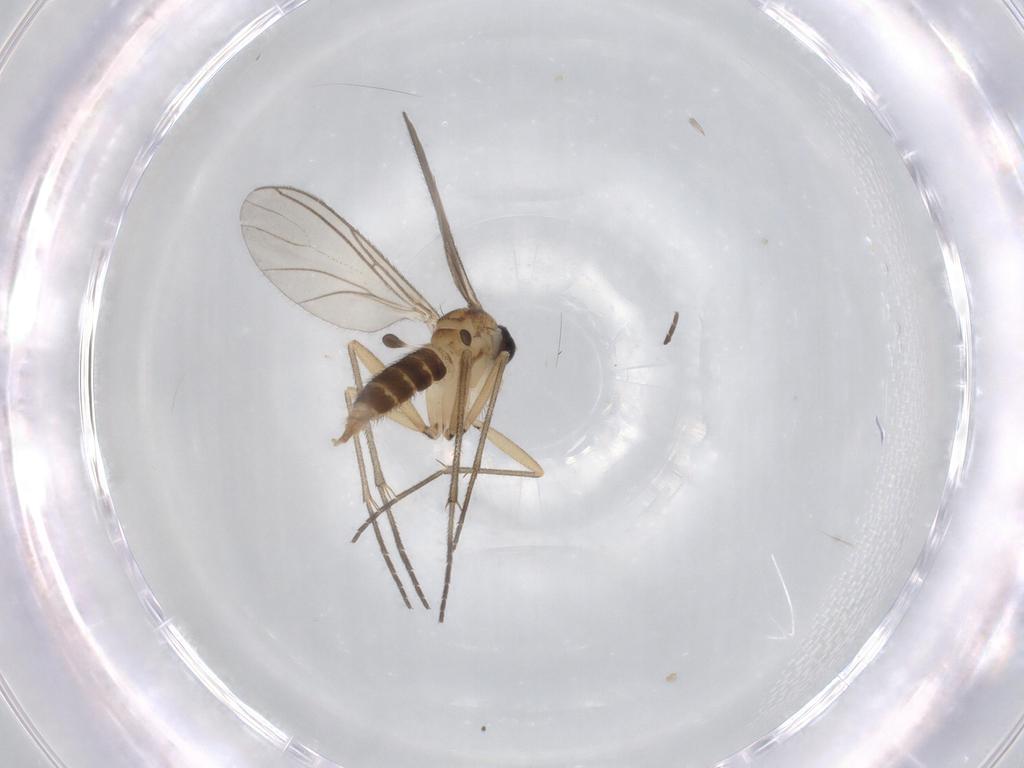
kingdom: Animalia
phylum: Arthropoda
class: Insecta
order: Diptera
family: Sciaridae
